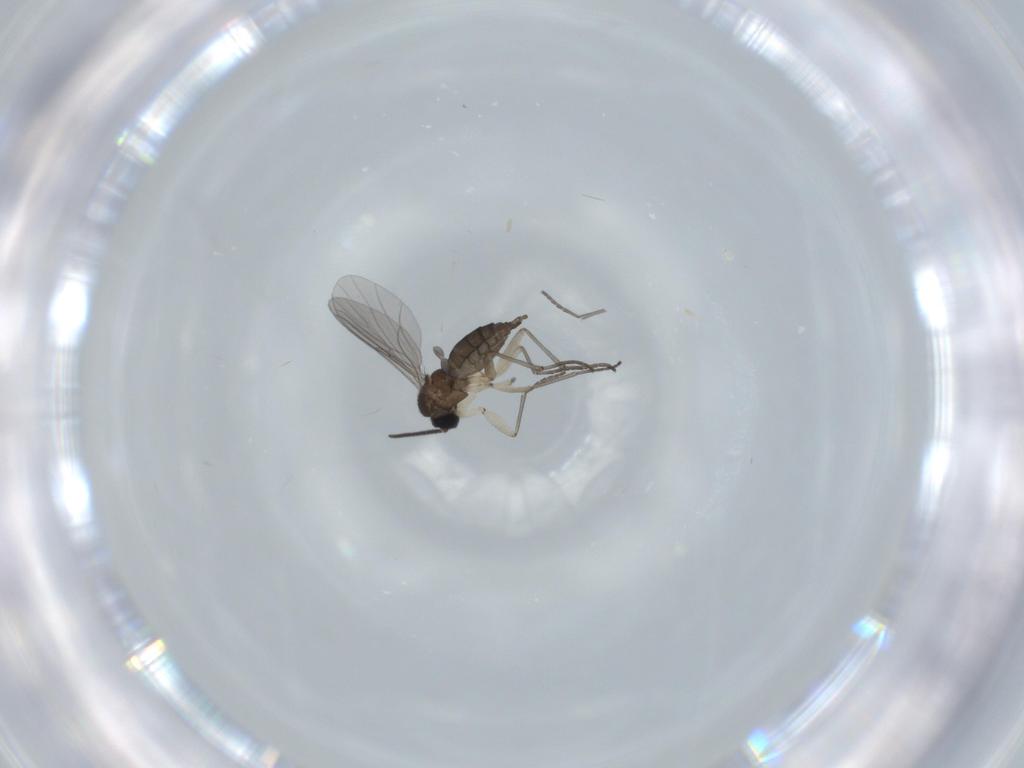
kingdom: Animalia
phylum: Arthropoda
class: Insecta
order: Diptera
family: Sciaridae
